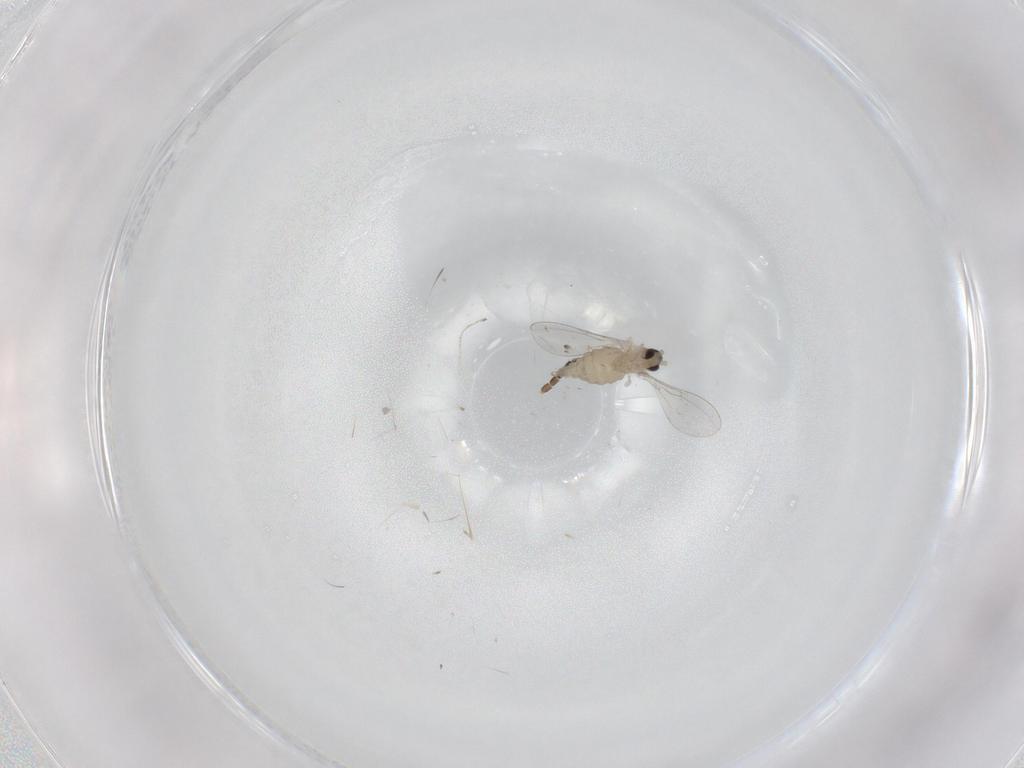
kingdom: Animalia
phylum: Arthropoda
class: Insecta
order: Diptera
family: Cecidomyiidae
